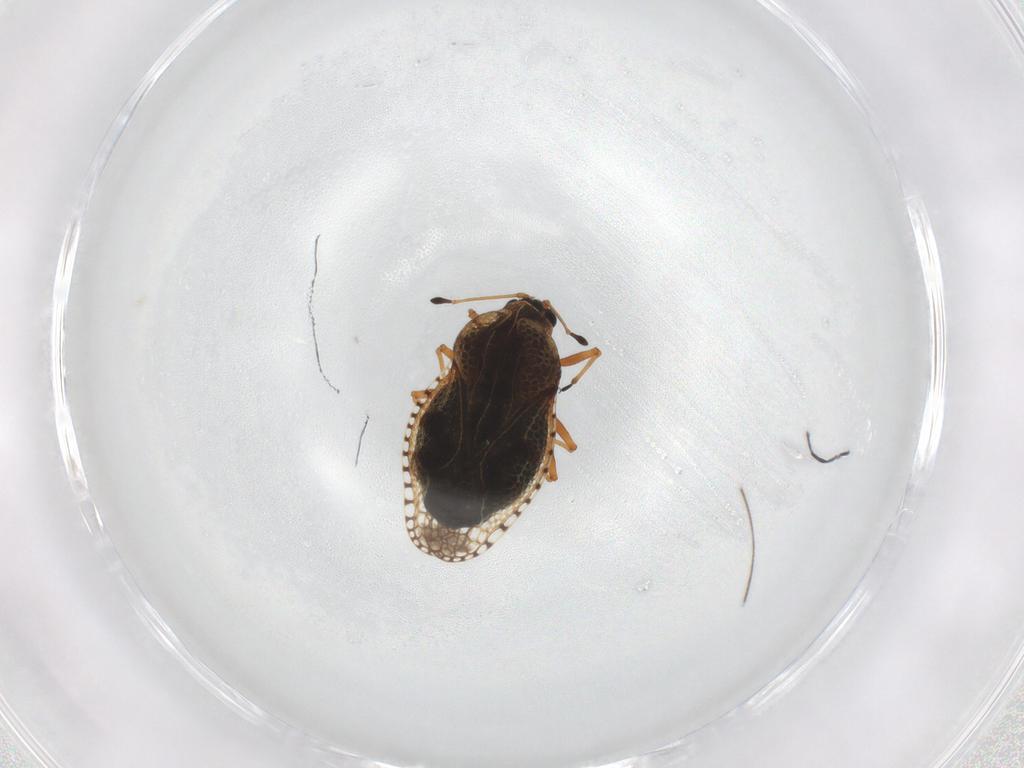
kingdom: Animalia
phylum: Arthropoda
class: Insecta
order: Hemiptera
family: Tingidae
